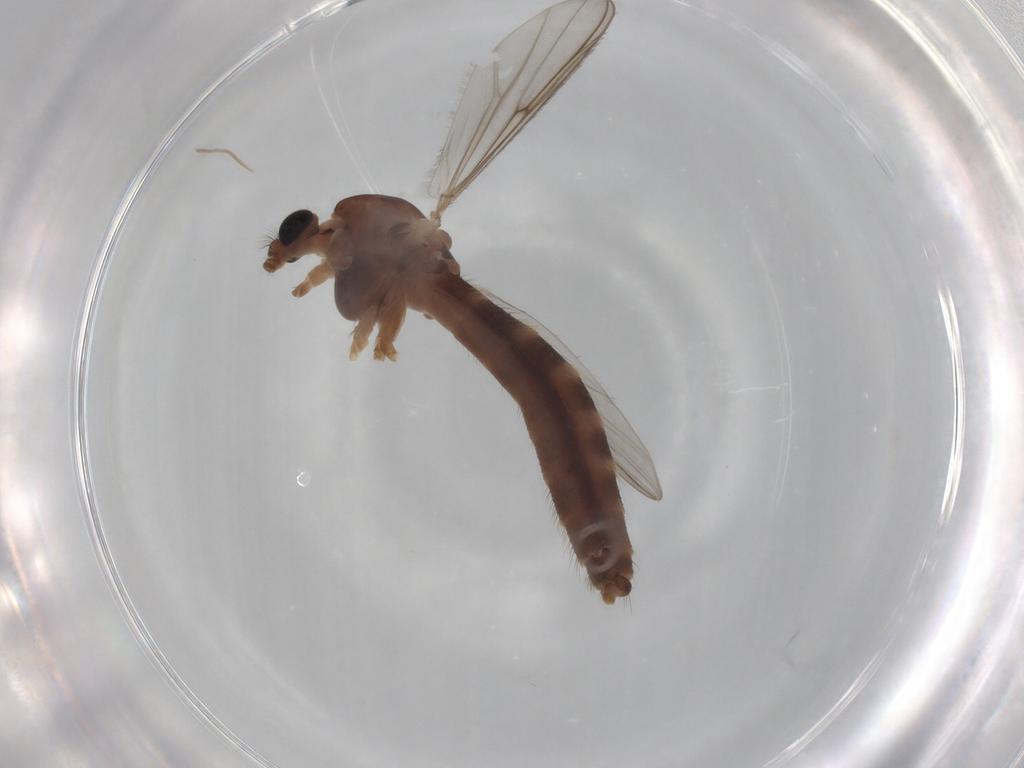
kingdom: Animalia
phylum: Arthropoda
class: Insecta
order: Diptera
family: Chironomidae
